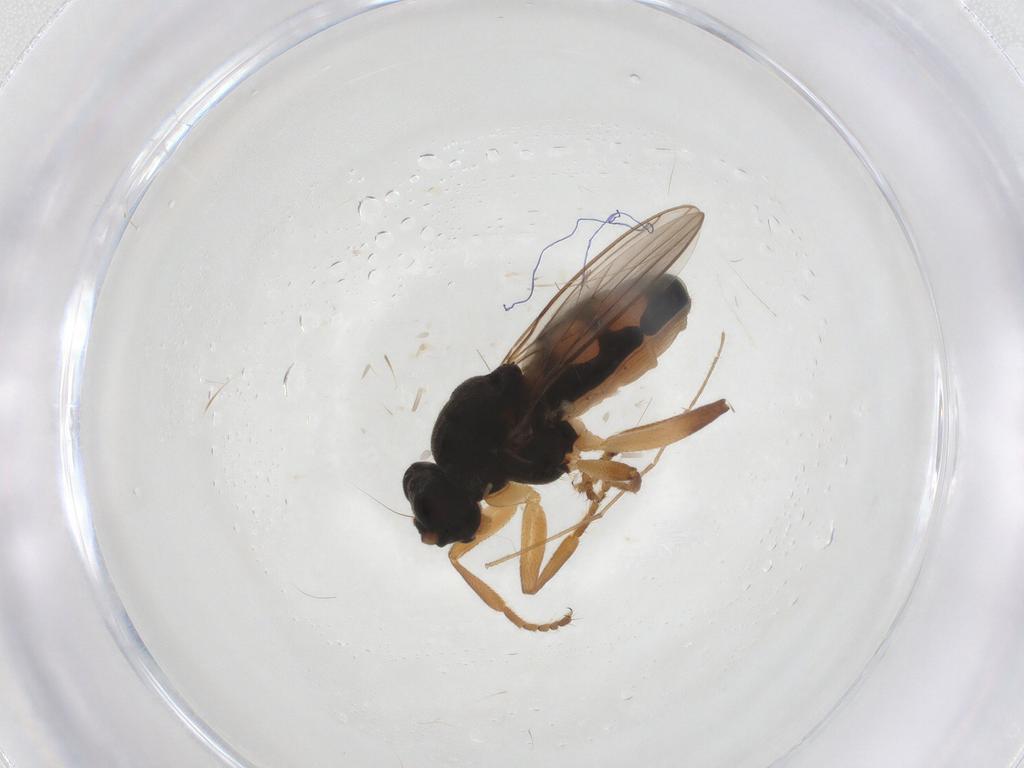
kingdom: Animalia
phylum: Arthropoda
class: Insecta
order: Diptera
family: Cecidomyiidae
